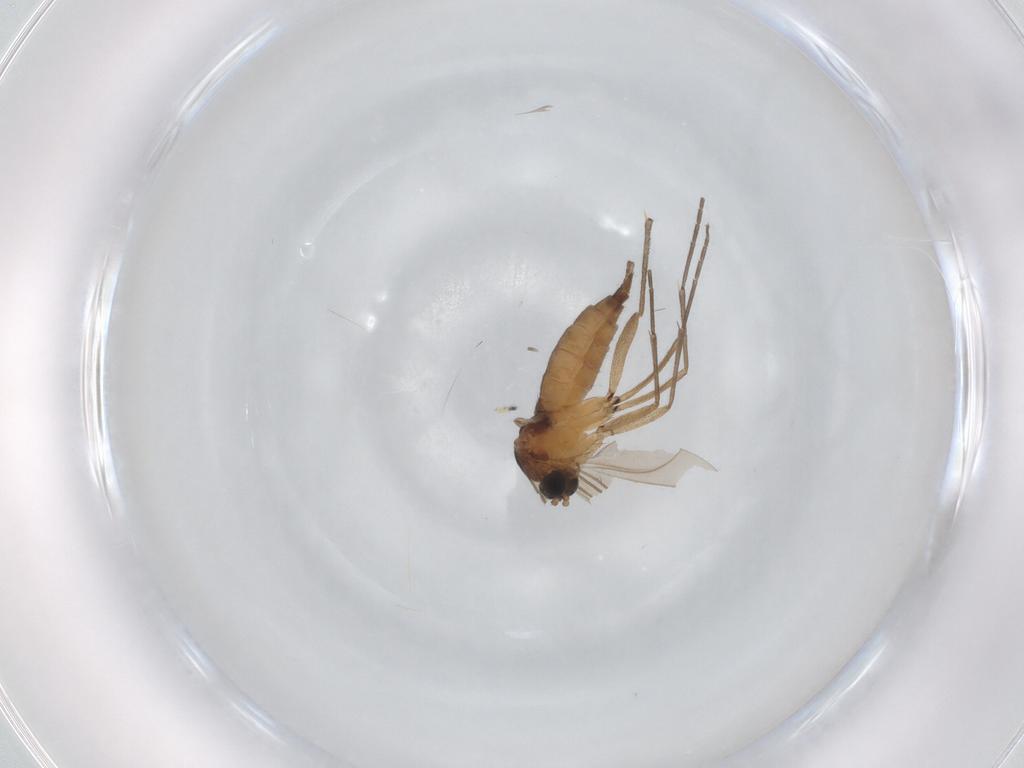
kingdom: Animalia
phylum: Arthropoda
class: Insecta
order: Diptera
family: Sciaridae
